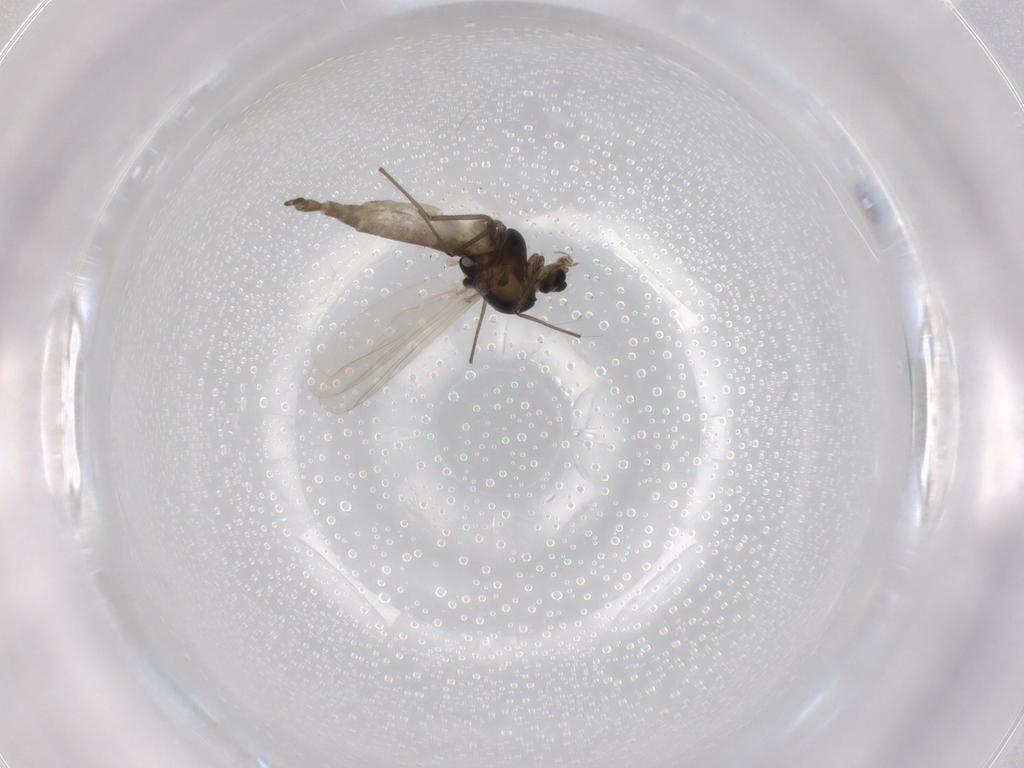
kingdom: Animalia
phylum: Arthropoda
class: Insecta
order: Diptera
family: Chironomidae
